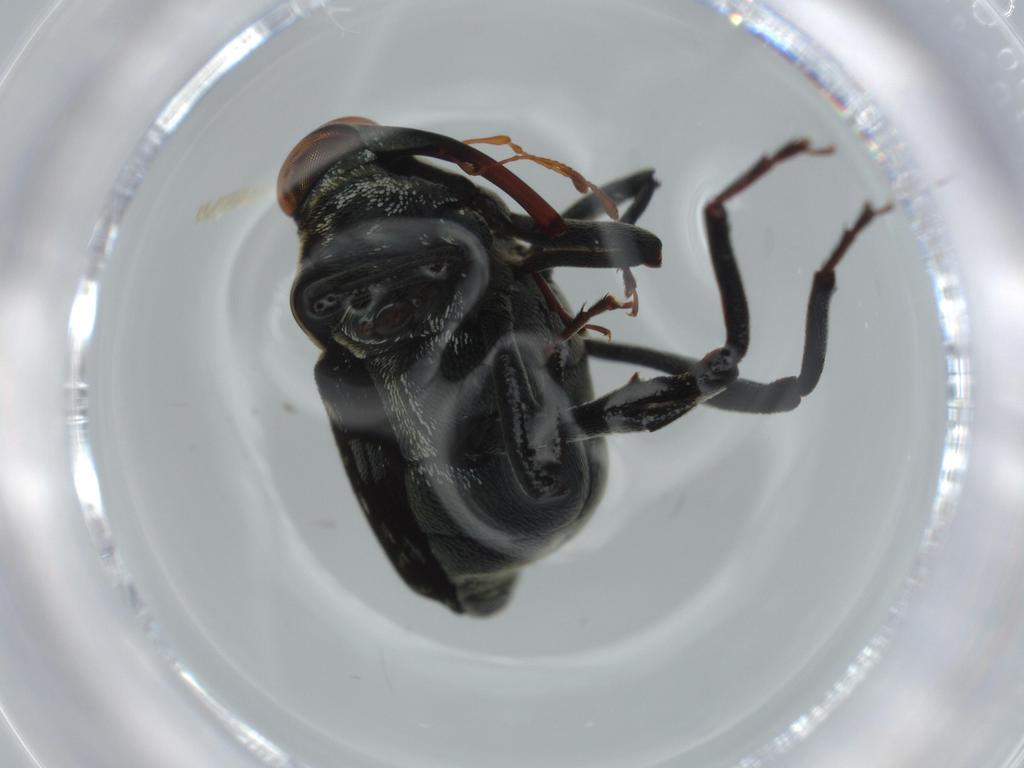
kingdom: Animalia
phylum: Arthropoda
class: Insecta
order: Coleoptera
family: Curculionidae
